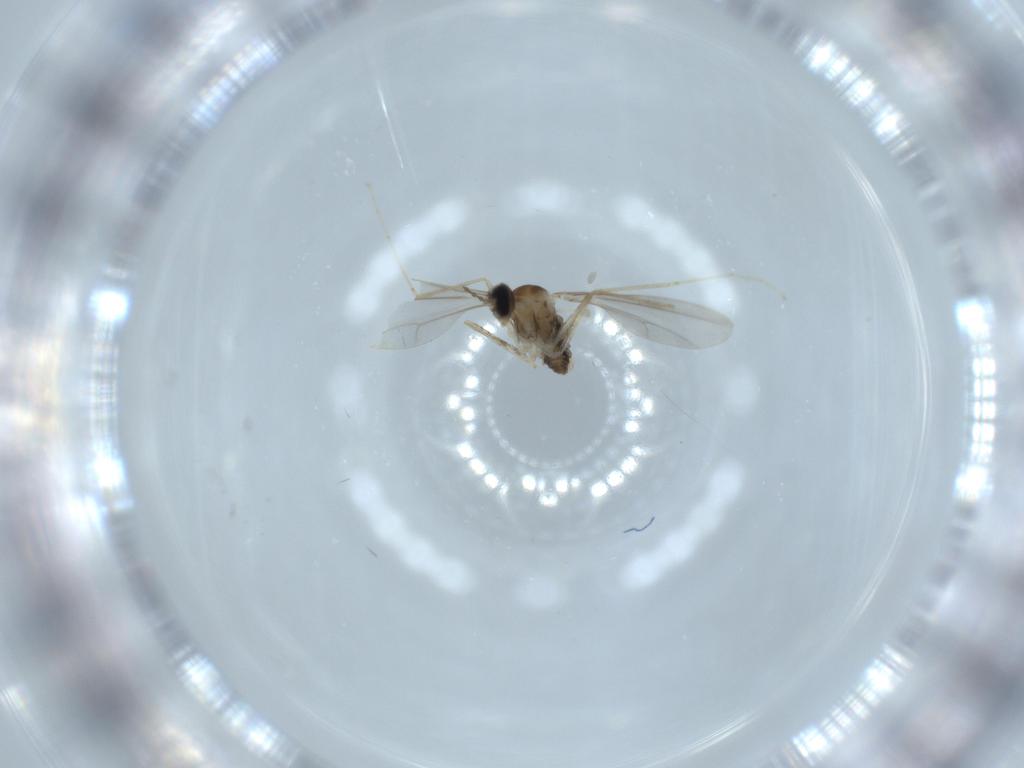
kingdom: Animalia
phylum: Arthropoda
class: Insecta
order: Diptera
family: Cecidomyiidae
